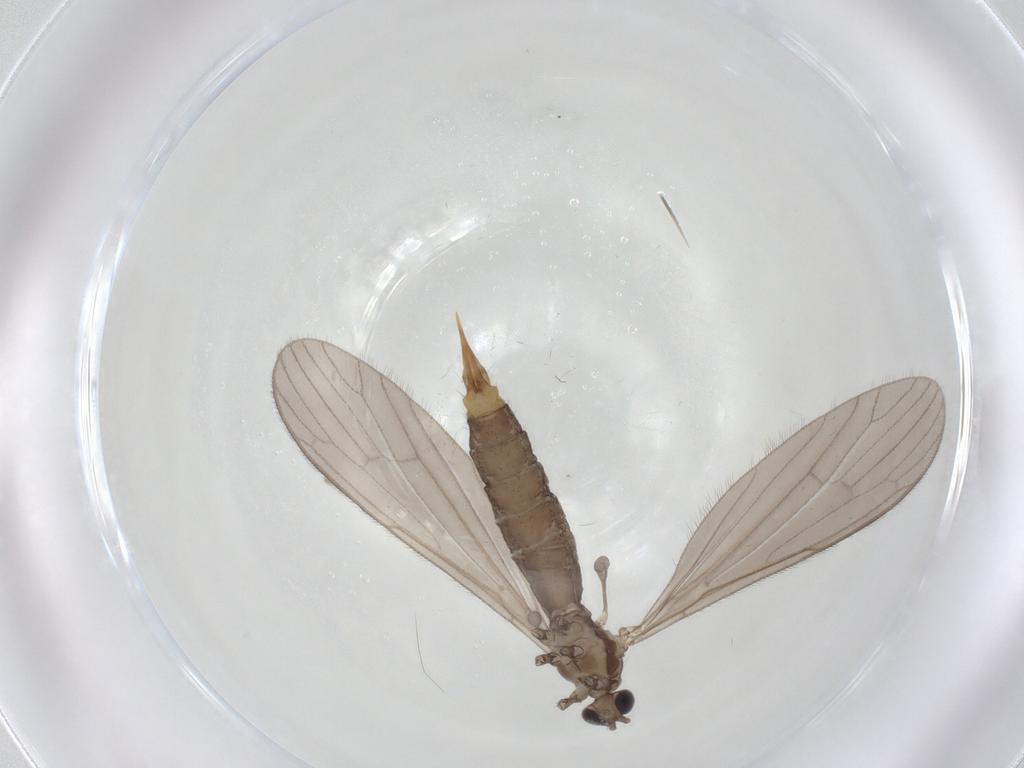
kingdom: Animalia
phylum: Arthropoda
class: Insecta
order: Diptera
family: Limoniidae
